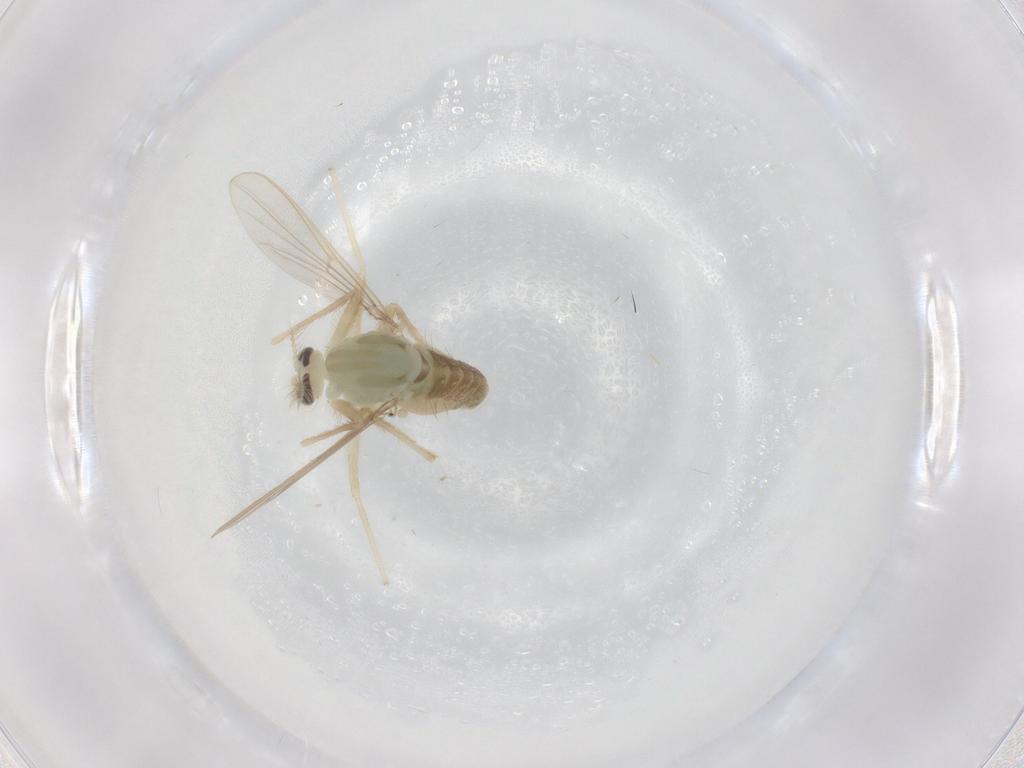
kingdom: Animalia
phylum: Arthropoda
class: Insecta
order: Diptera
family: Chironomidae
